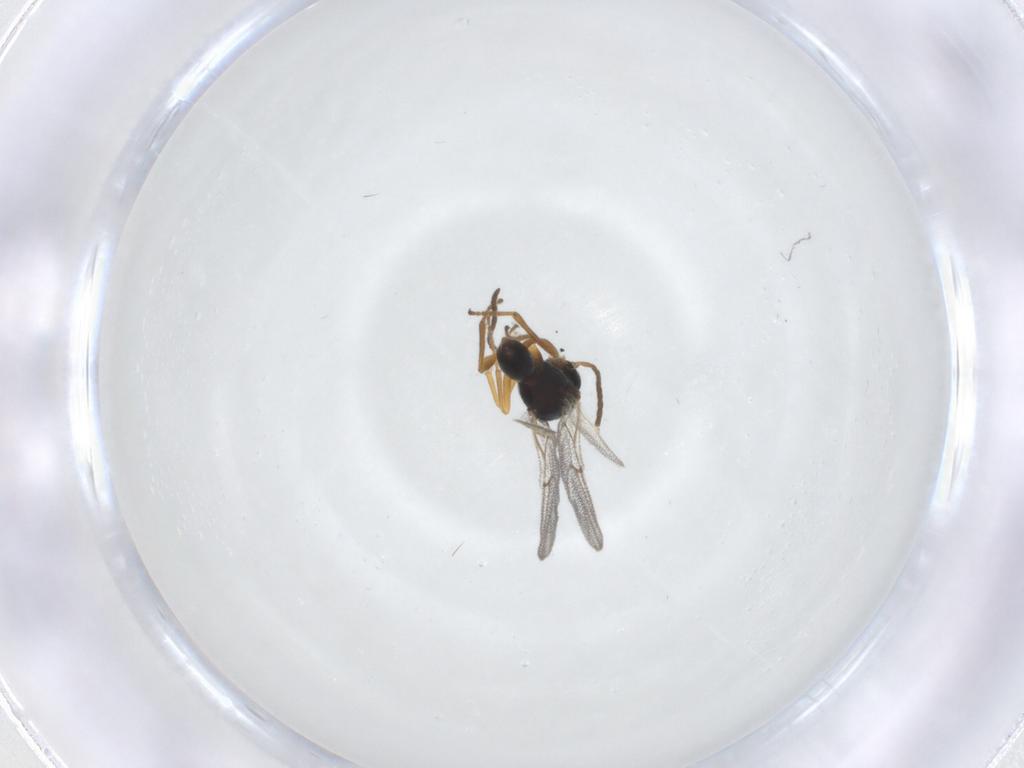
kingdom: Animalia
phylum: Arthropoda
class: Insecta
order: Hymenoptera
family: Cynipidae
